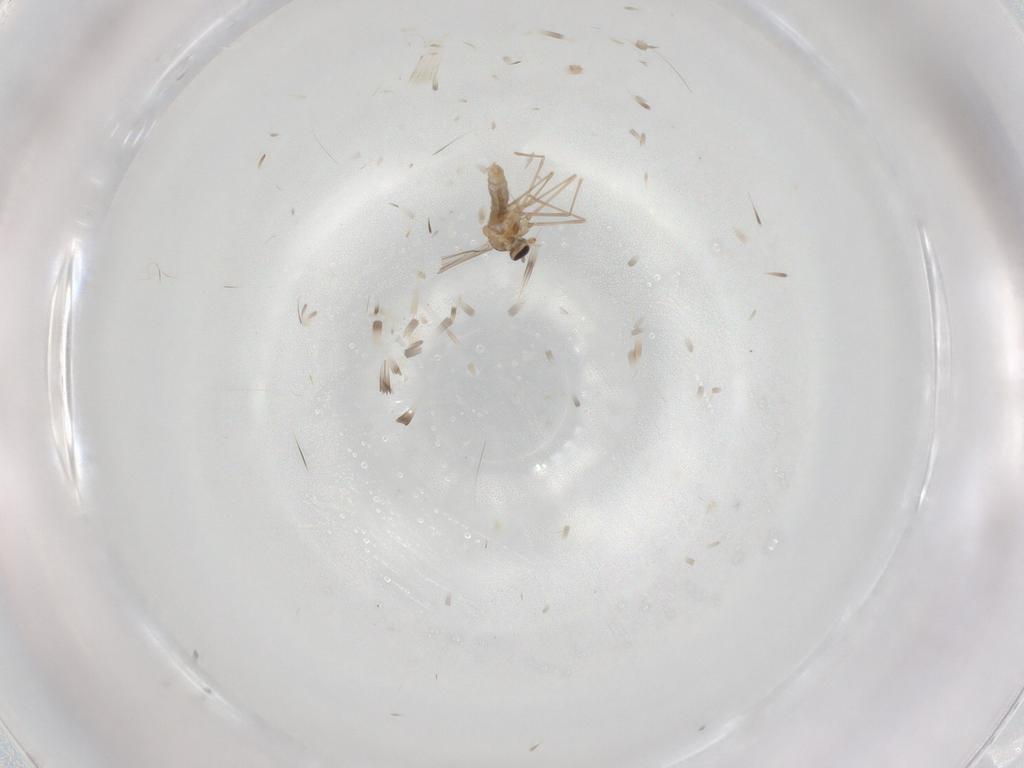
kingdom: Animalia
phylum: Arthropoda
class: Insecta
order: Diptera
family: Cecidomyiidae
